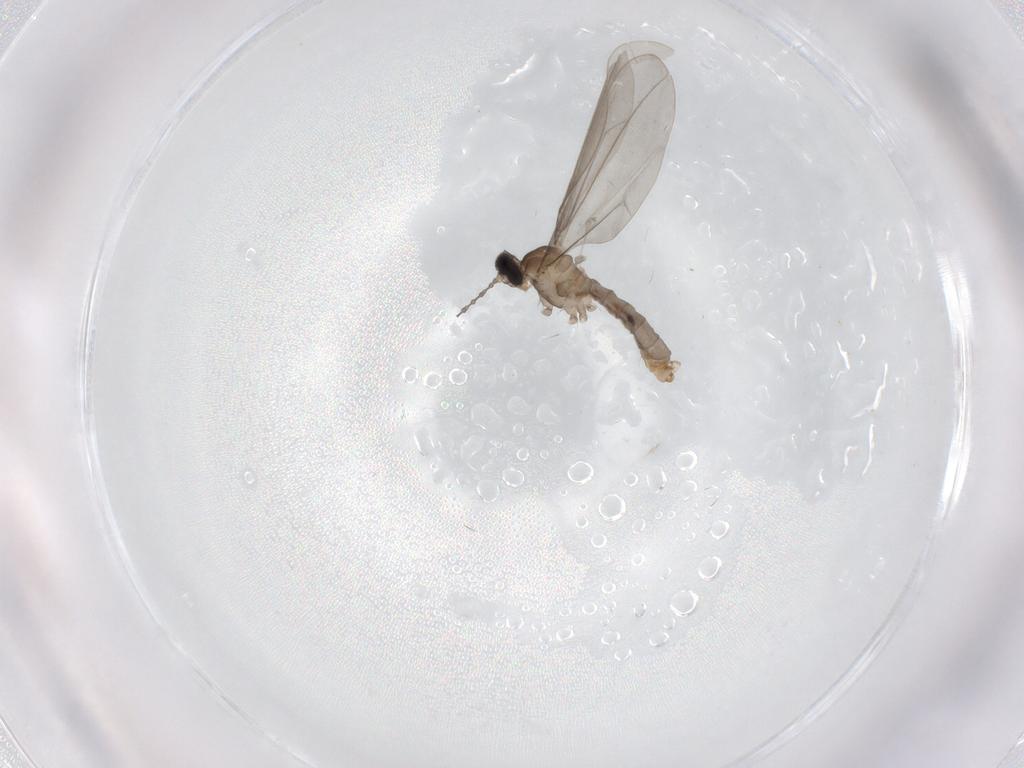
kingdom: Animalia
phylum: Arthropoda
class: Insecta
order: Diptera
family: Cecidomyiidae
